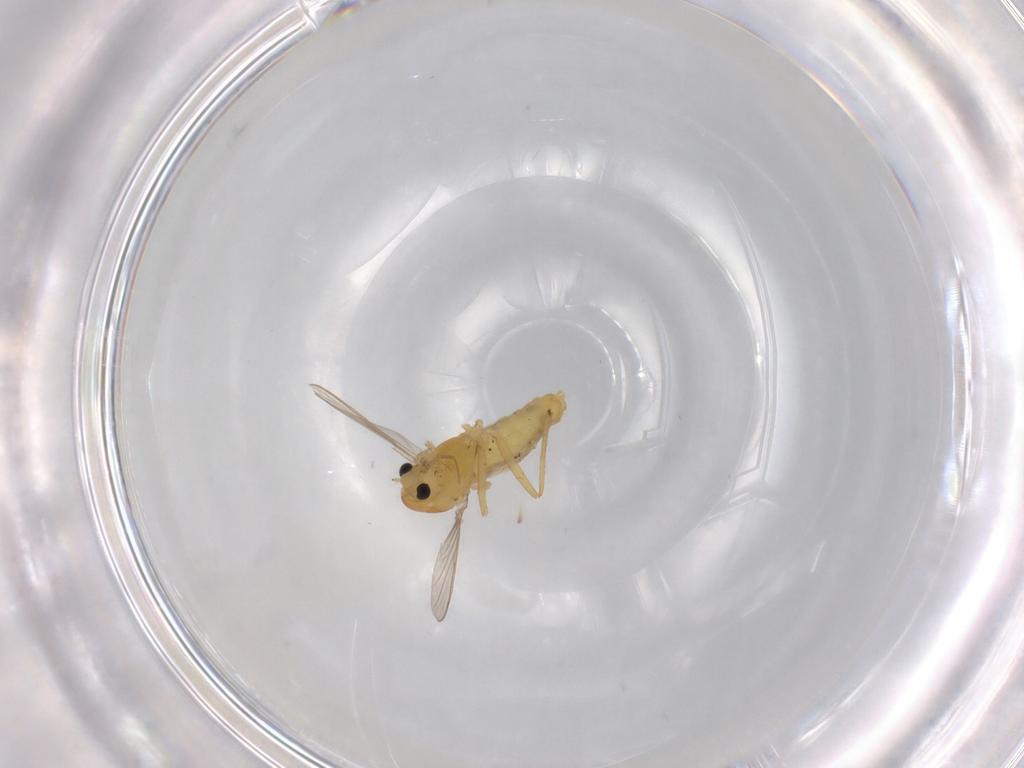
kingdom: Animalia
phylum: Arthropoda
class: Insecta
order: Diptera
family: Chironomidae
